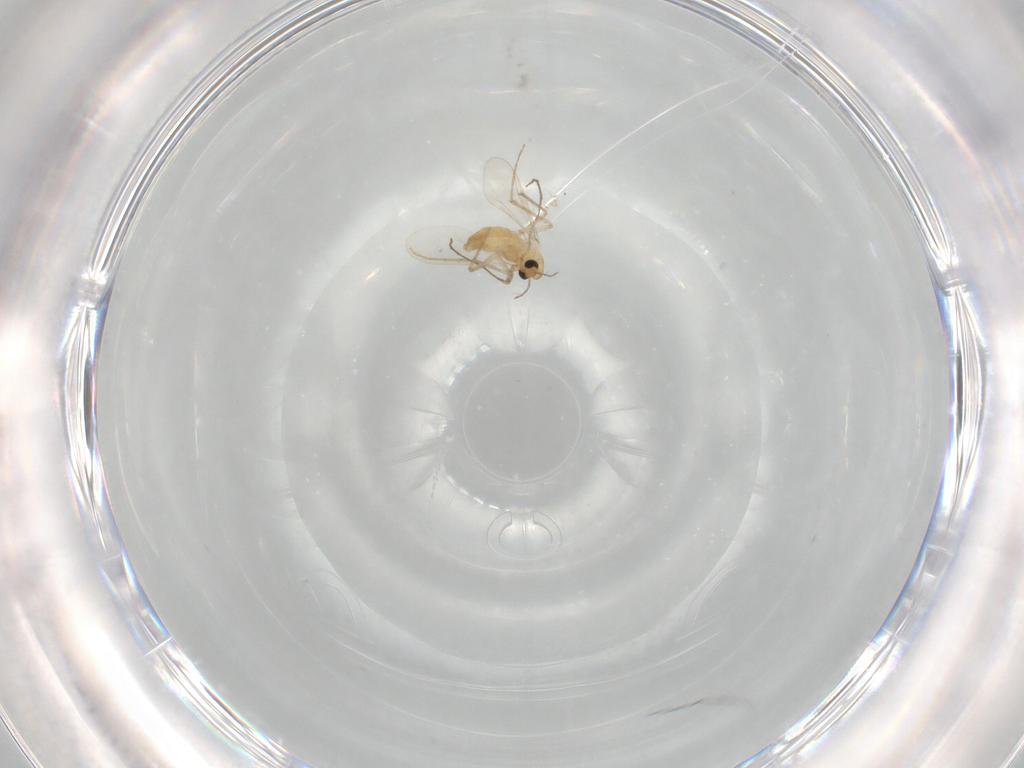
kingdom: Animalia
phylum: Arthropoda
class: Insecta
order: Diptera
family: Chironomidae
